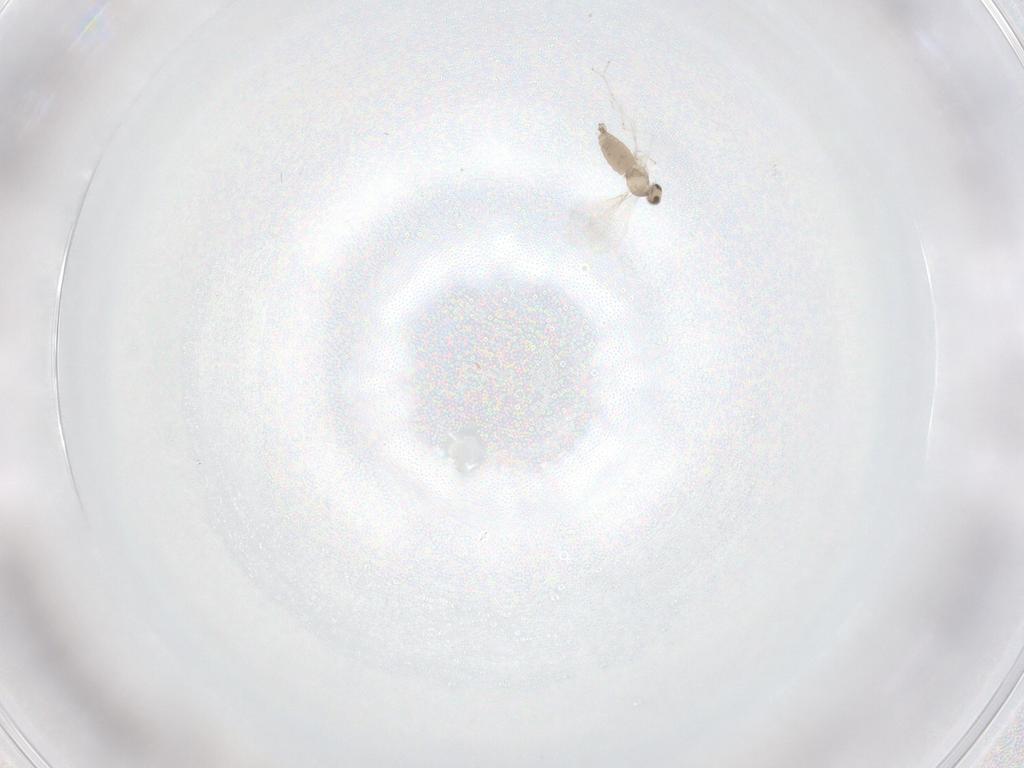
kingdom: Animalia
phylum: Arthropoda
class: Insecta
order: Diptera
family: Cecidomyiidae
